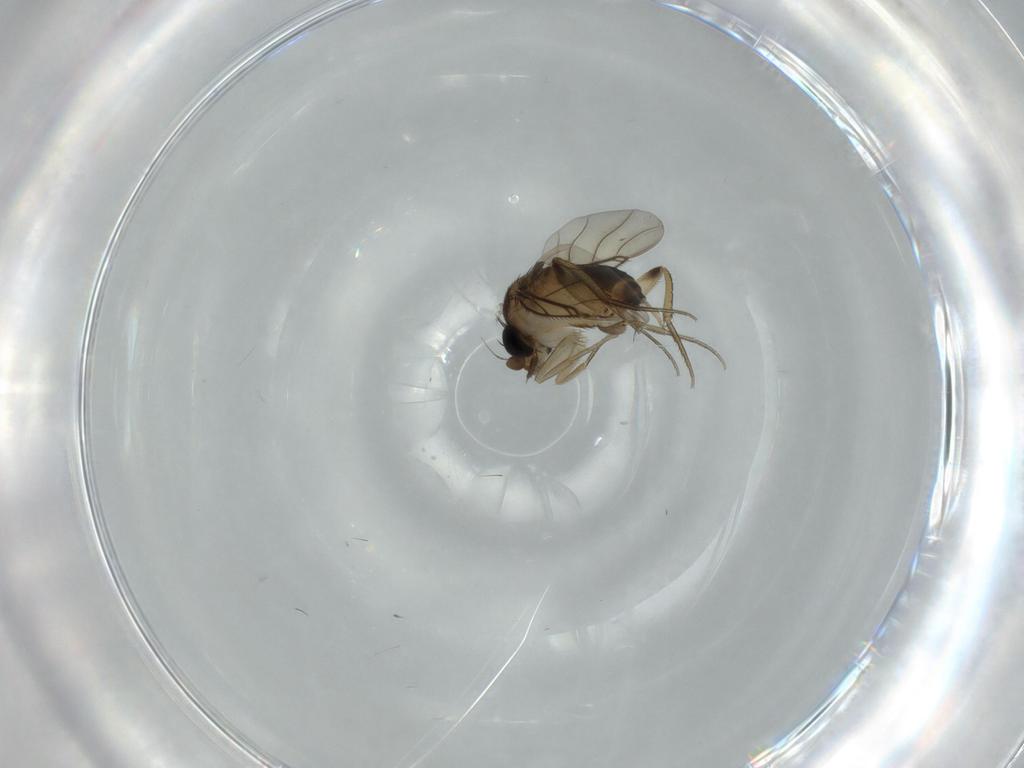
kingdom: Animalia
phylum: Arthropoda
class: Insecta
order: Diptera
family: Phoridae
